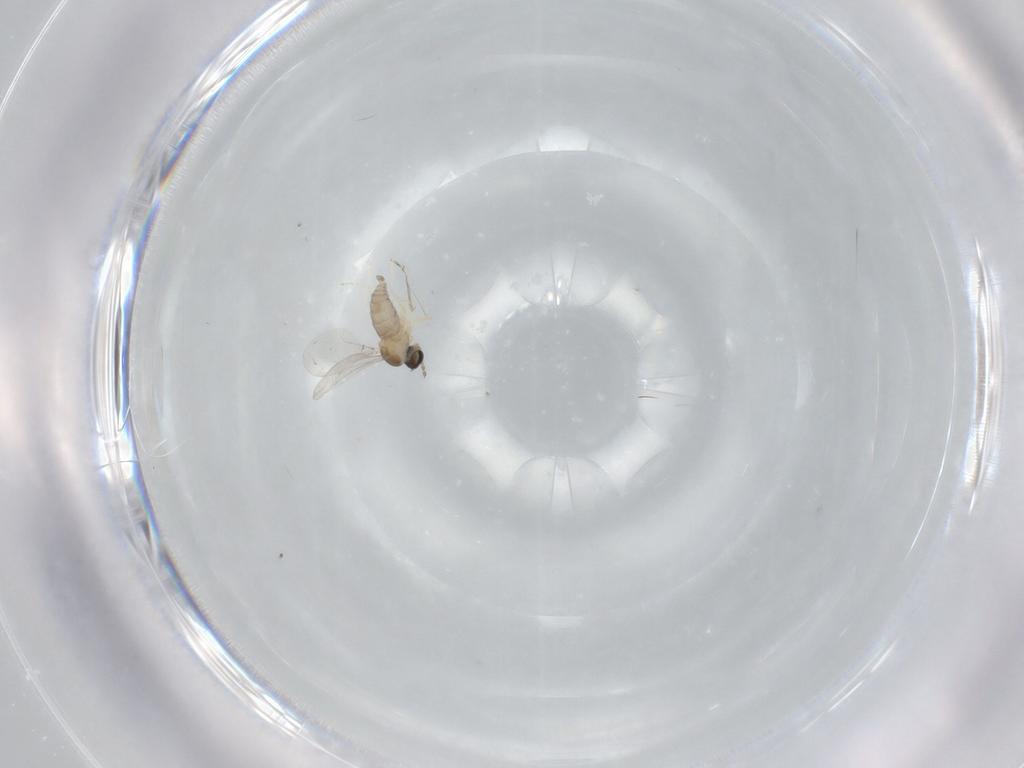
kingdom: Animalia
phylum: Arthropoda
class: Insecta
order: Diptera
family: Cecidomyiidae
